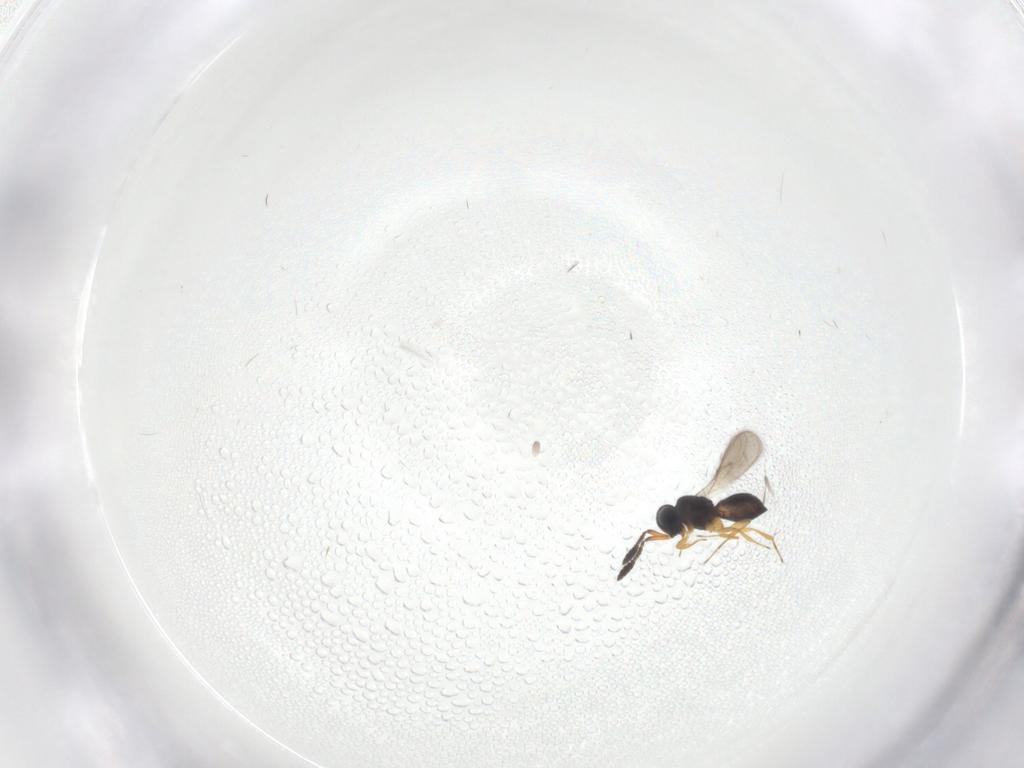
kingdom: Animalia
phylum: Arthropoda
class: Insecta
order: Hymenoptera
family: Scelionidae
